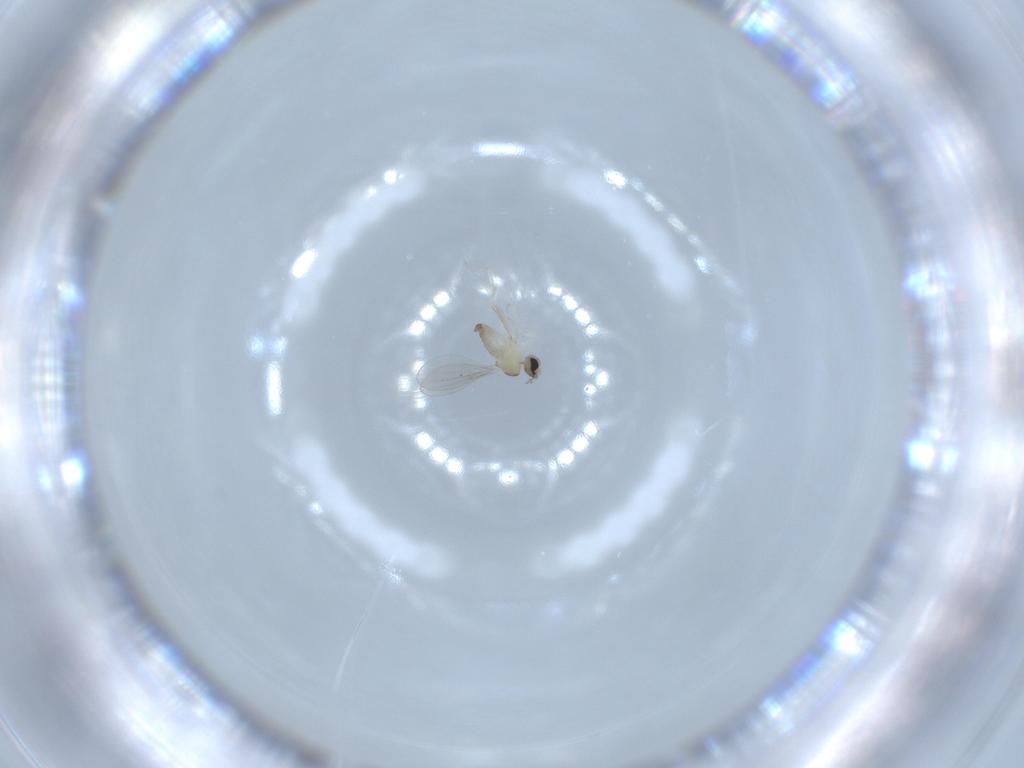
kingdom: Animalia
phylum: Arthropoda
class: Insecta
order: Diptera
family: Cecidomyiidae
